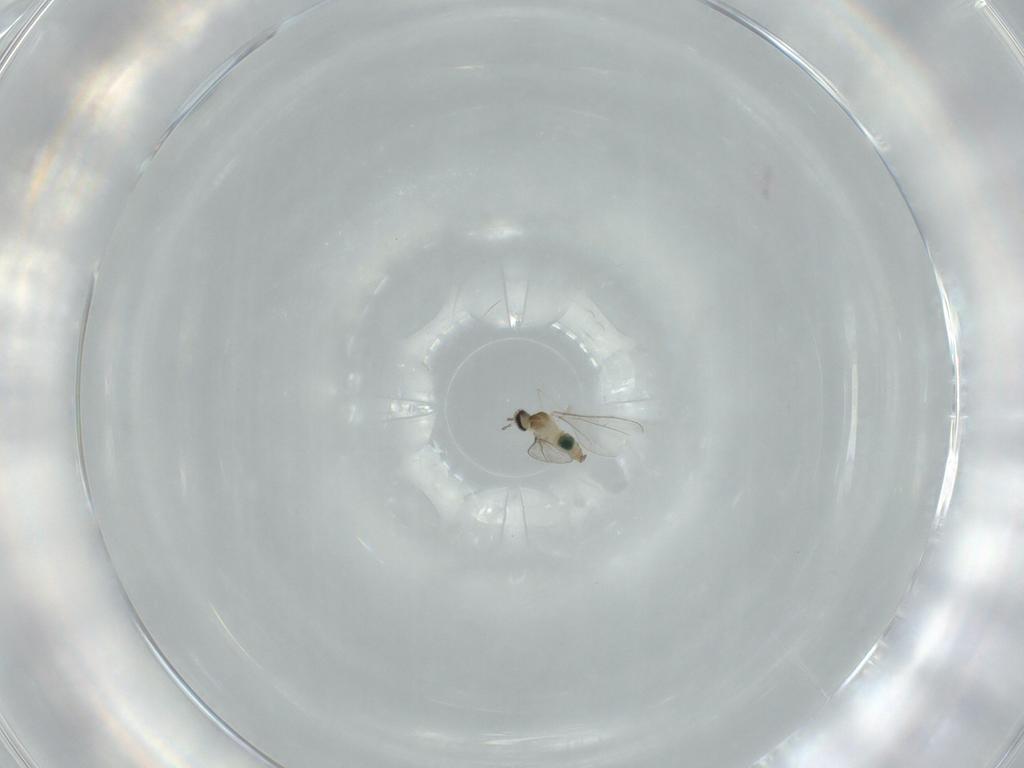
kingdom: Animalia
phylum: Arthropoda
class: Insecta
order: Diptera
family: Cecidomyiidae
